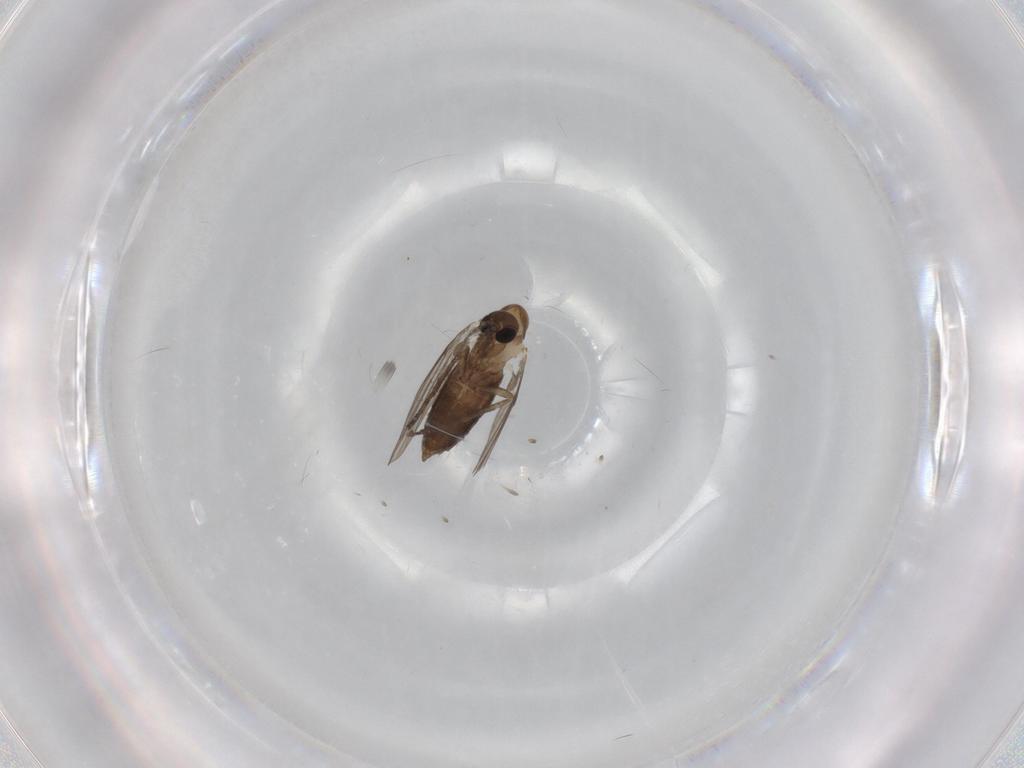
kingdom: Animalia
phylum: Arthropoda
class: Insecta
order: Diptera
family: Psychodidae
